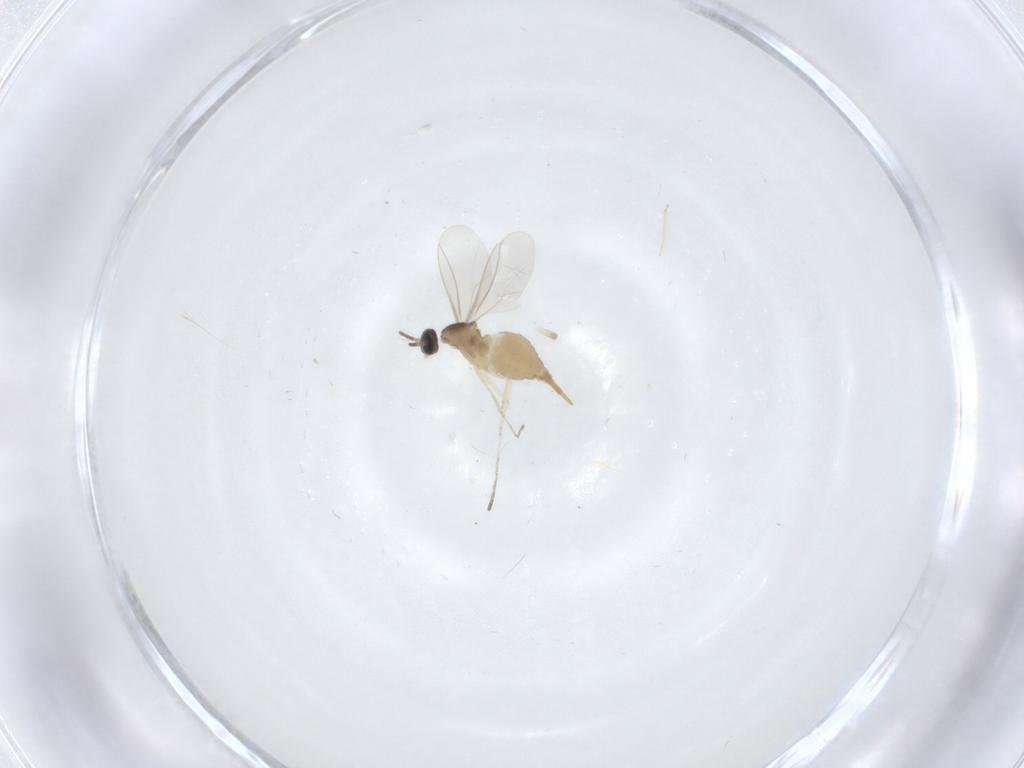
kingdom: Animalia
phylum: Arthropoda
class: Insecta
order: Diptera
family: Cecidomyiidae
